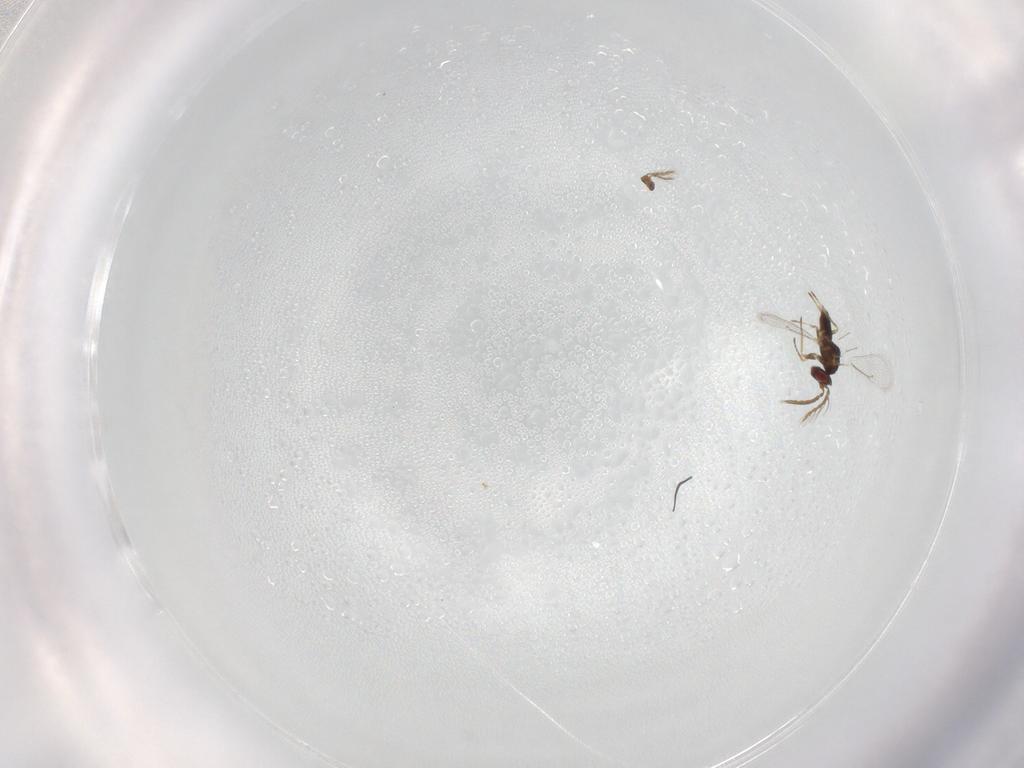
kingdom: Animalia
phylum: Arthropoda
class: Insecta
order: Hymenoptera
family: Eulophidae
